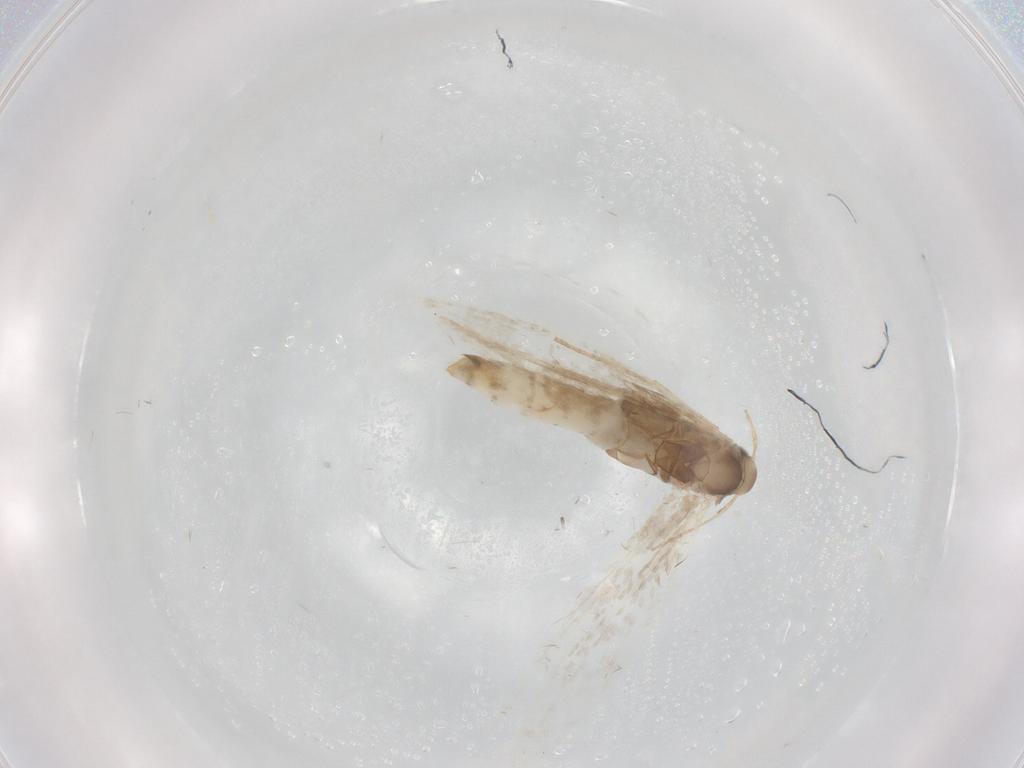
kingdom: Animalia
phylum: Arthropoda
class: Insecta
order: Lepidoptera
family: Gracillariidae
